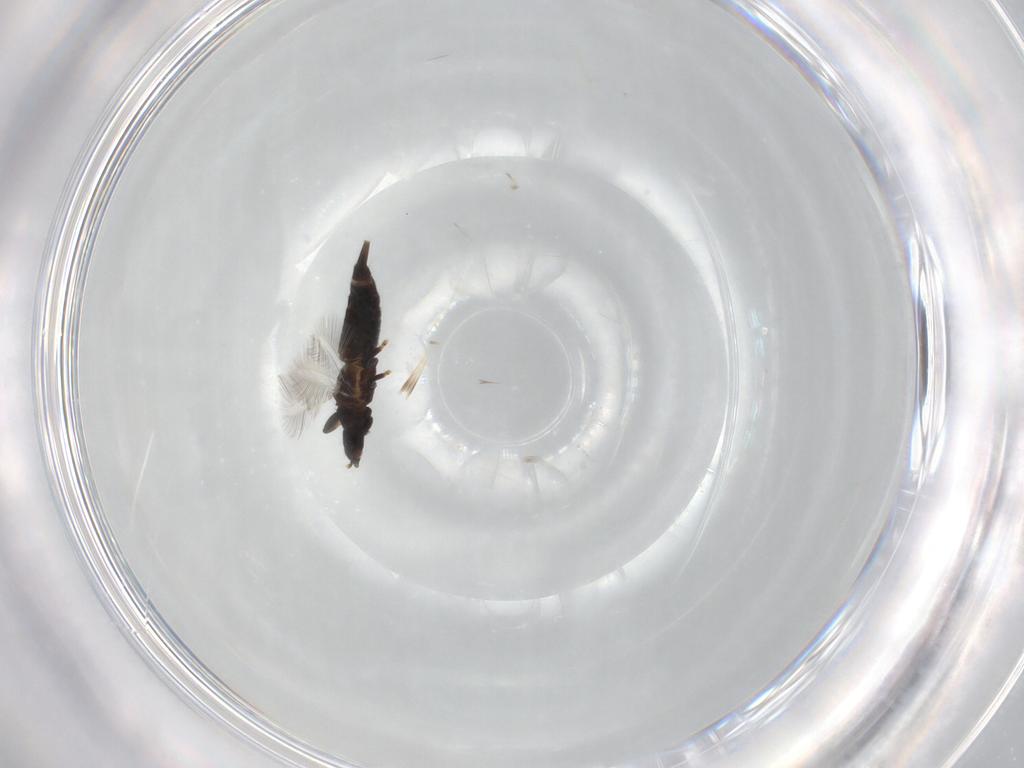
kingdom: Animalia
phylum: Arthropoda
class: Insecta
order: Thysanoptera
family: Phlaeothripidae
